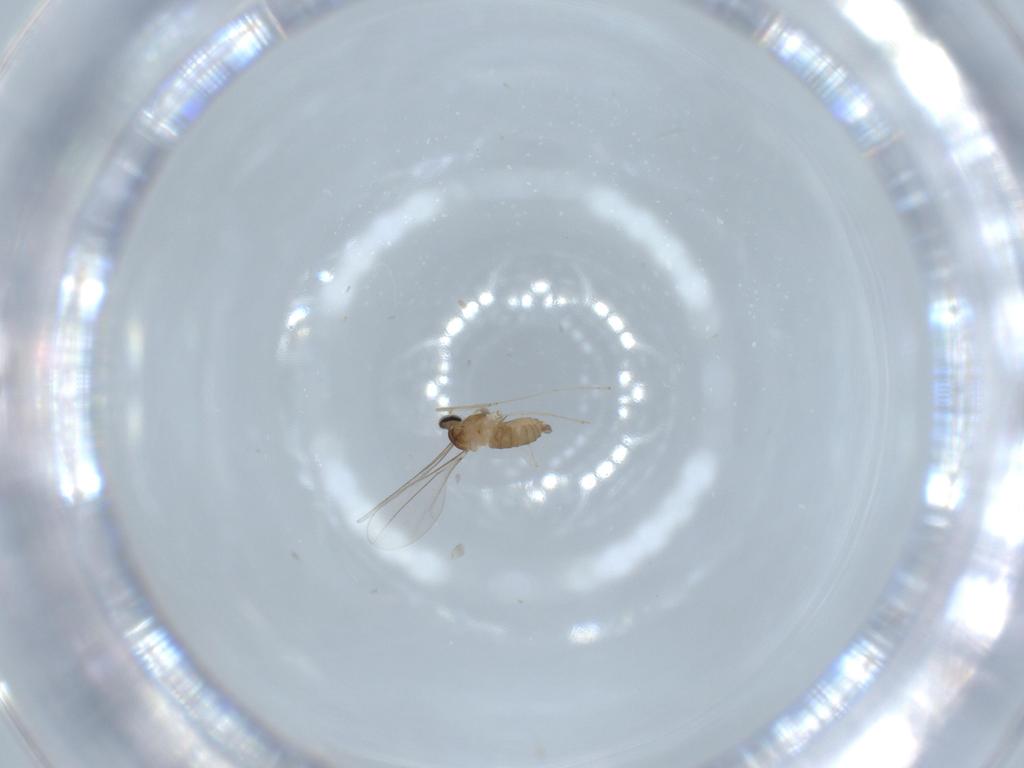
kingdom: Animalia
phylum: Arthropoda
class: Insecta
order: Diptera
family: Cecidomyiidae
